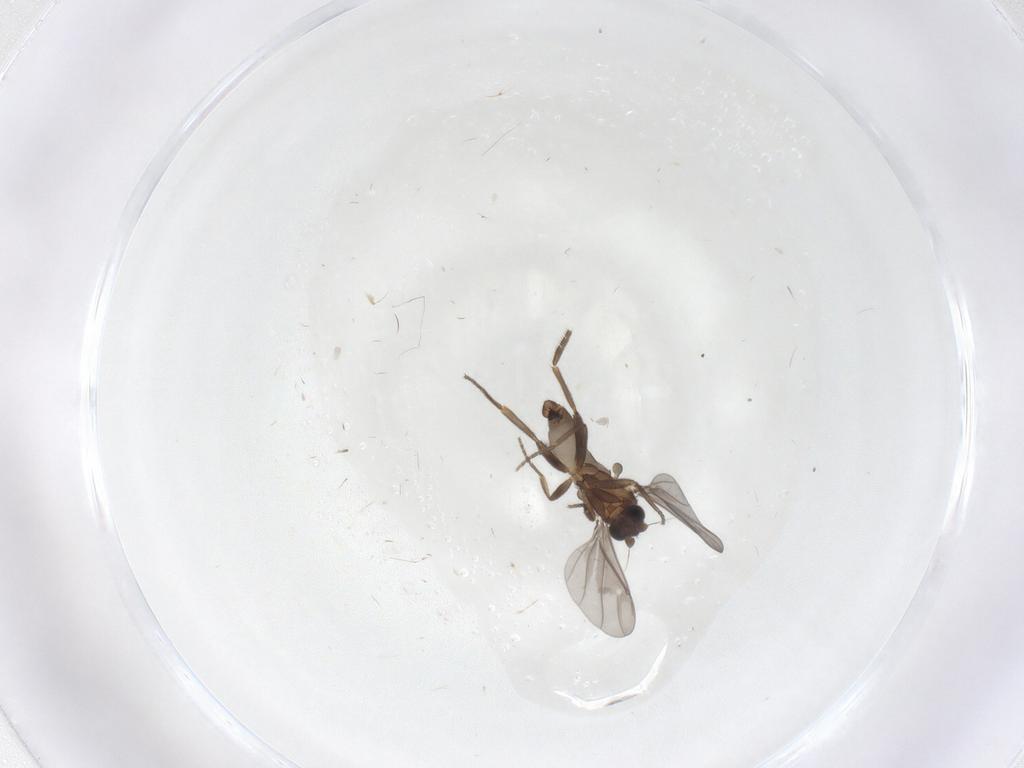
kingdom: Animalia
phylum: Arthropoda
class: Insecta
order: Diptera
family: Phoridae
